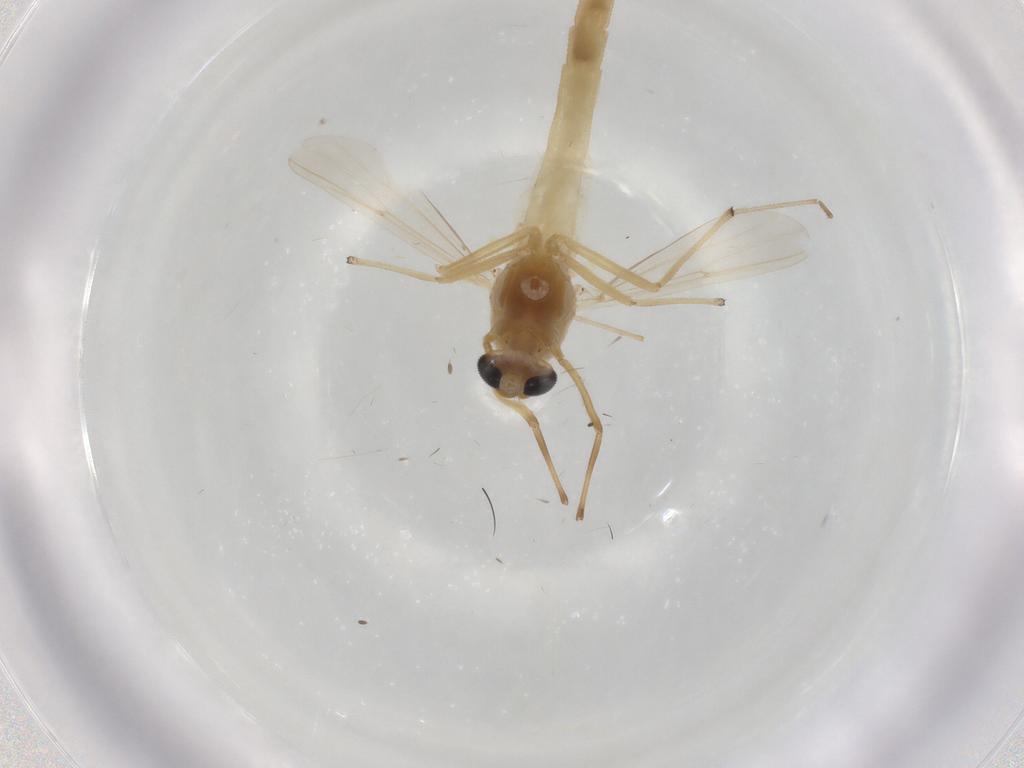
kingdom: Animalia
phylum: Arthropoda
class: Insecta
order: Diptera
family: Chironomidae
